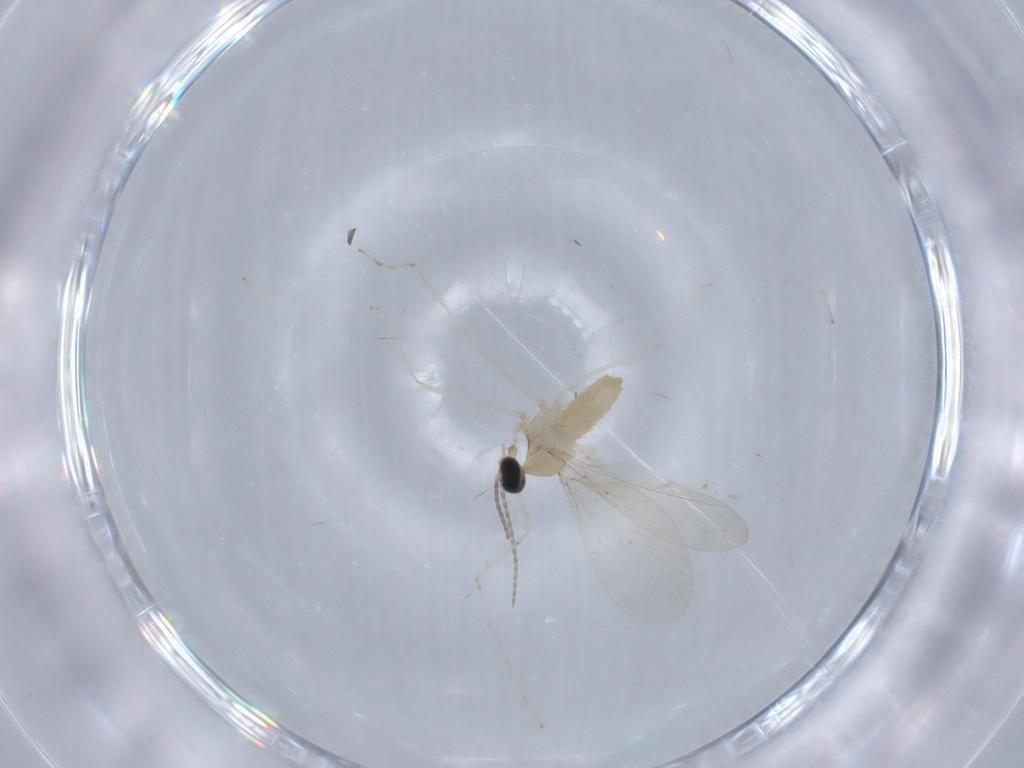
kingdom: Animalia
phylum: Arthropoda
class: Insecta
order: Diptera
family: Cecidomyiidae
